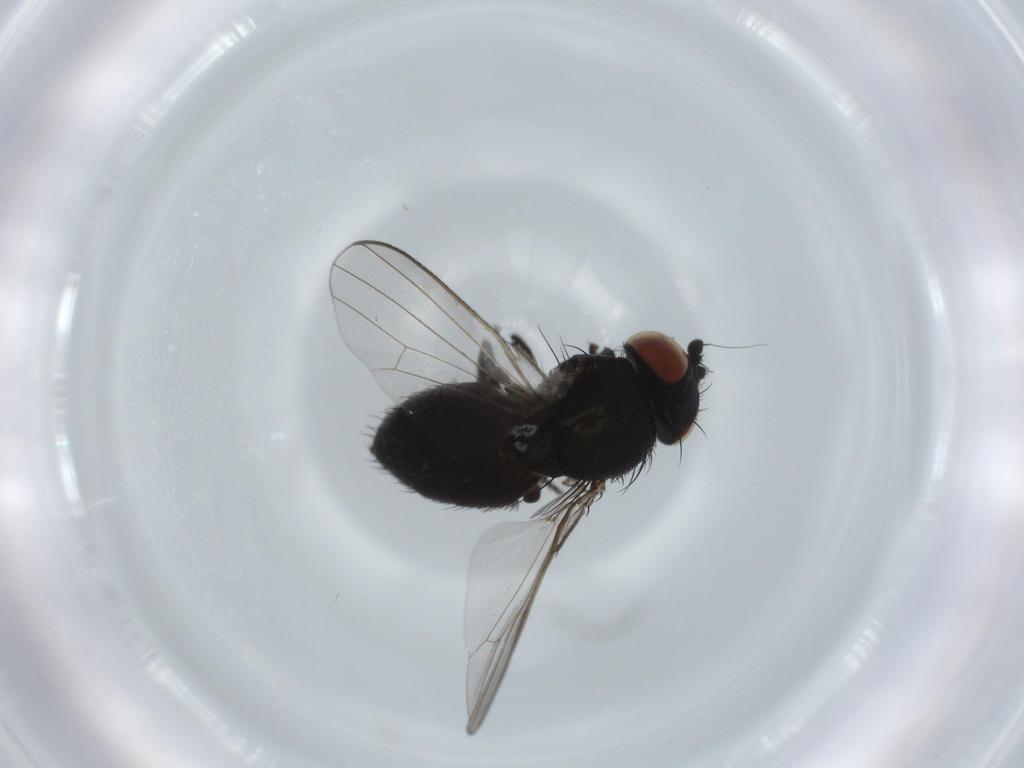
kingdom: Animalia
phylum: Arthropoda
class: Insecta
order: Diptera
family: Milichiidae
